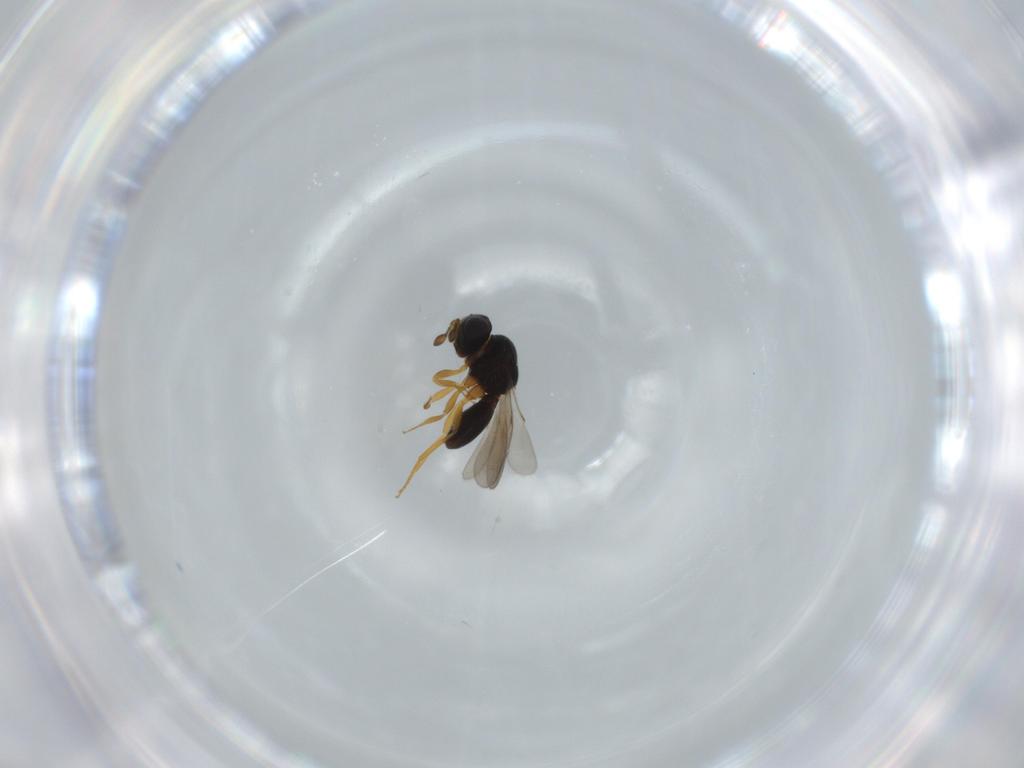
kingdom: Animalia
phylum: Arthropoda
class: Insecta
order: Hymenoptera
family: Scelionidae
